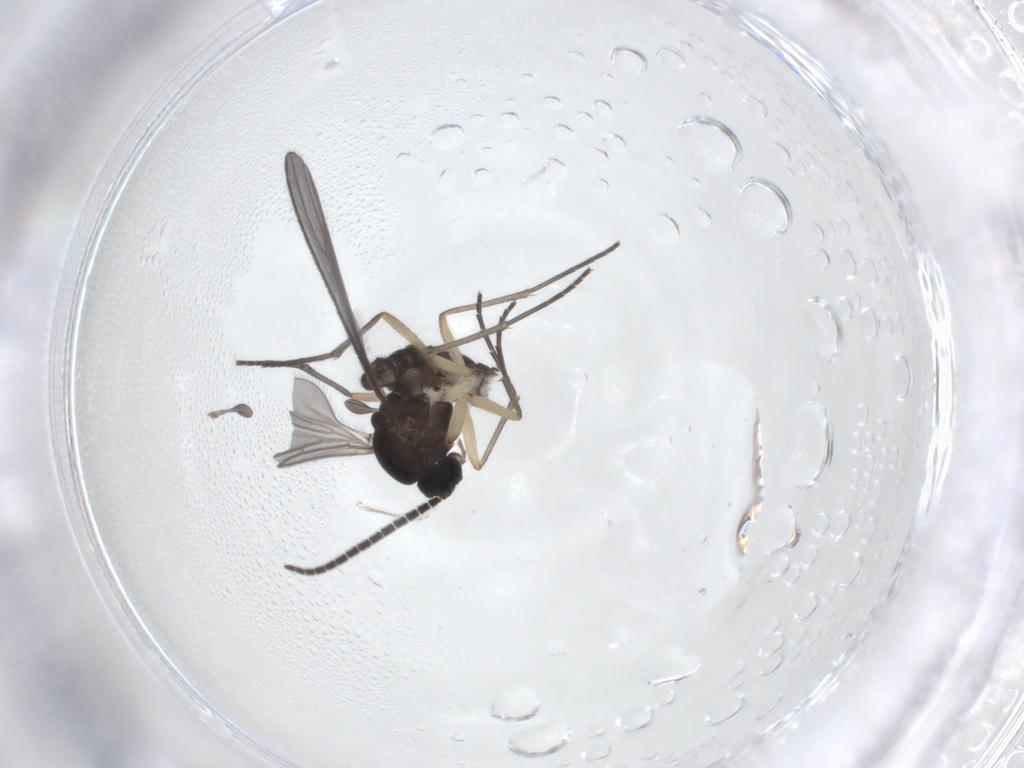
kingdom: Animalia
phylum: Arthropoda
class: Insecta
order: Diptera
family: Sciaridae
